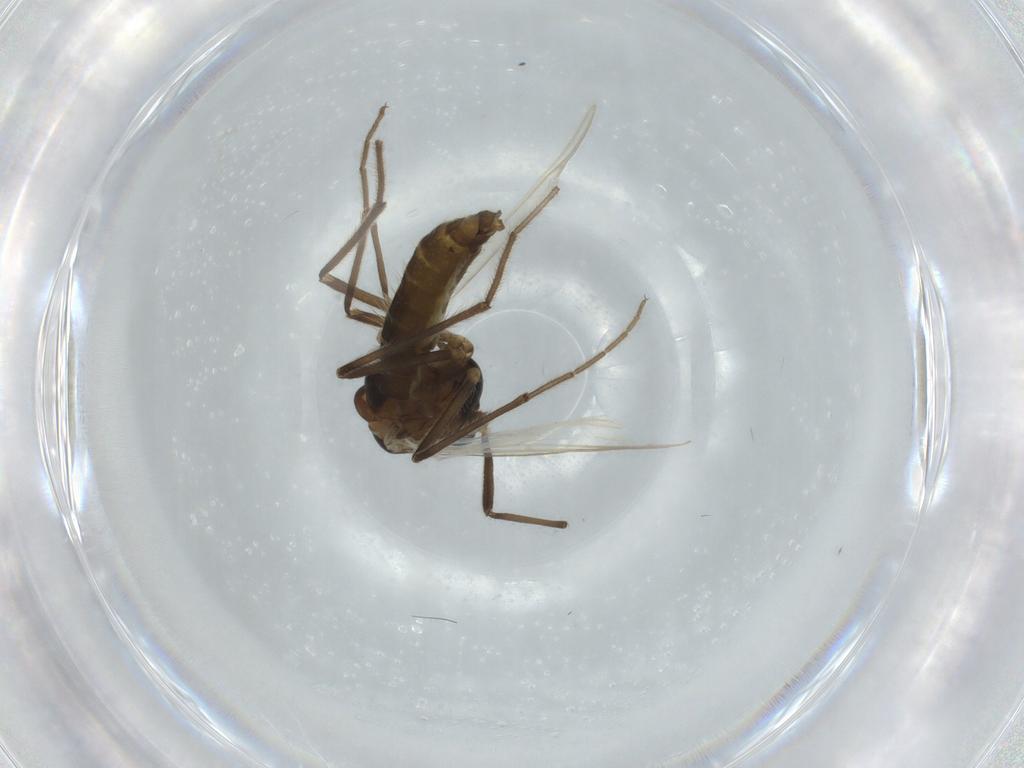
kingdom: Animalia
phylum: Arthropoda
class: Insecta
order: Diptera
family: Chironomidae
